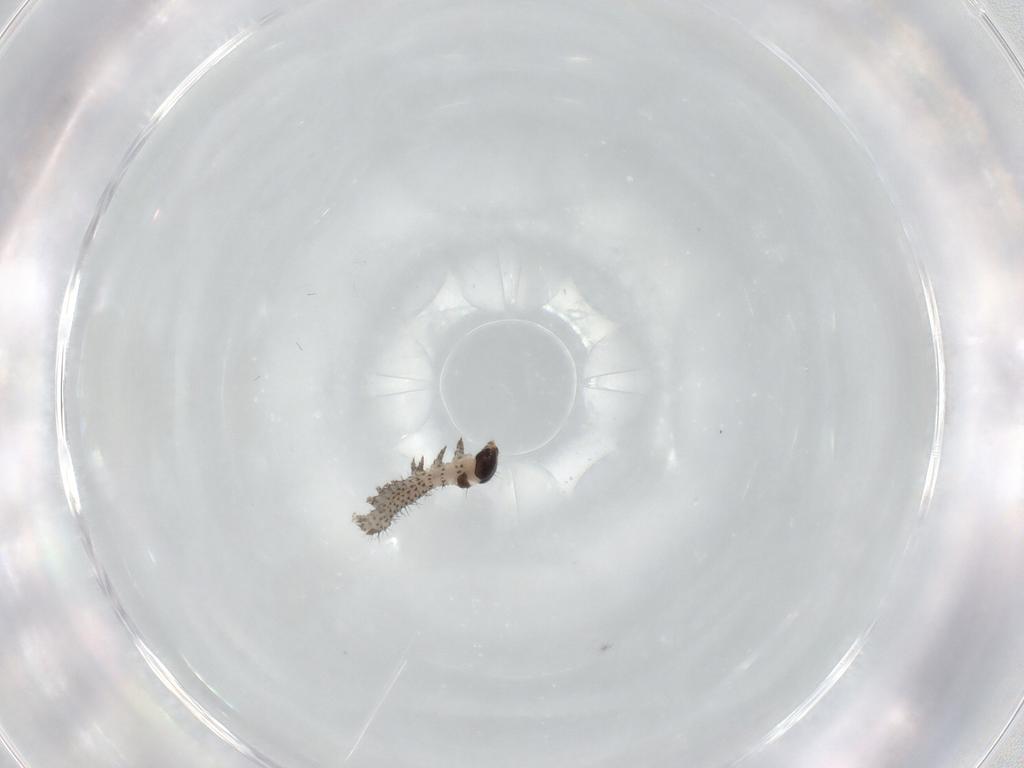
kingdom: Animalia
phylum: Arthropoda
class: Insecta
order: Lepidoptera
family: Noctuidae
